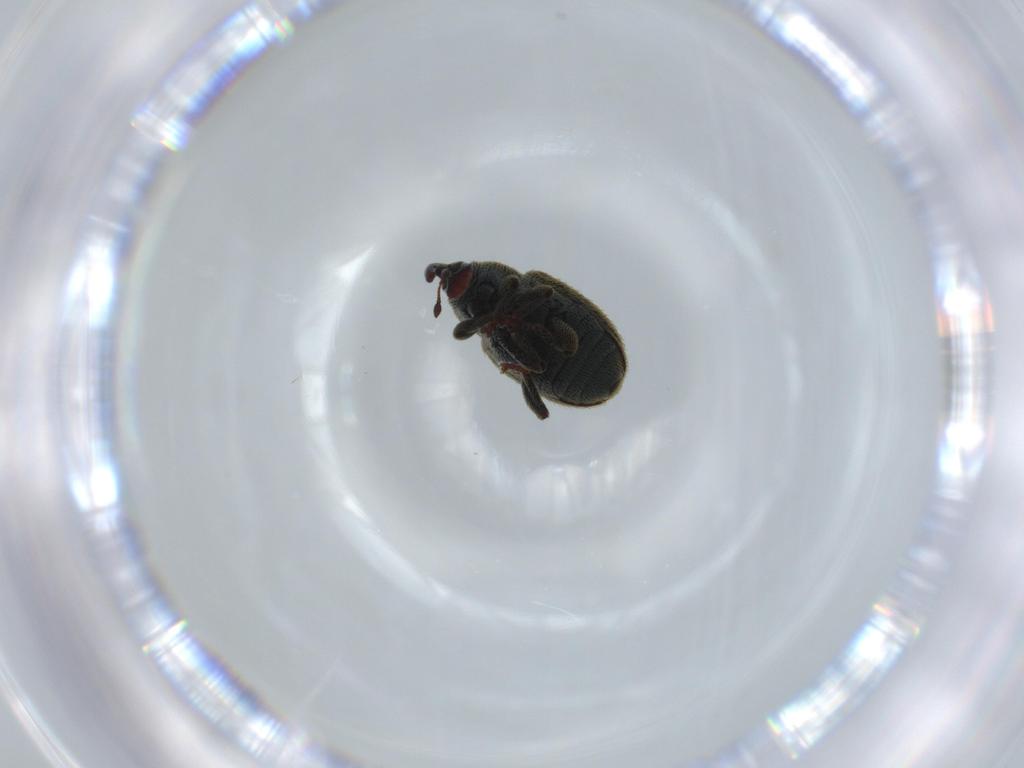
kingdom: Animalia
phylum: Arthropoda
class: Insecta
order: Coleoptera
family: Curculionidae
